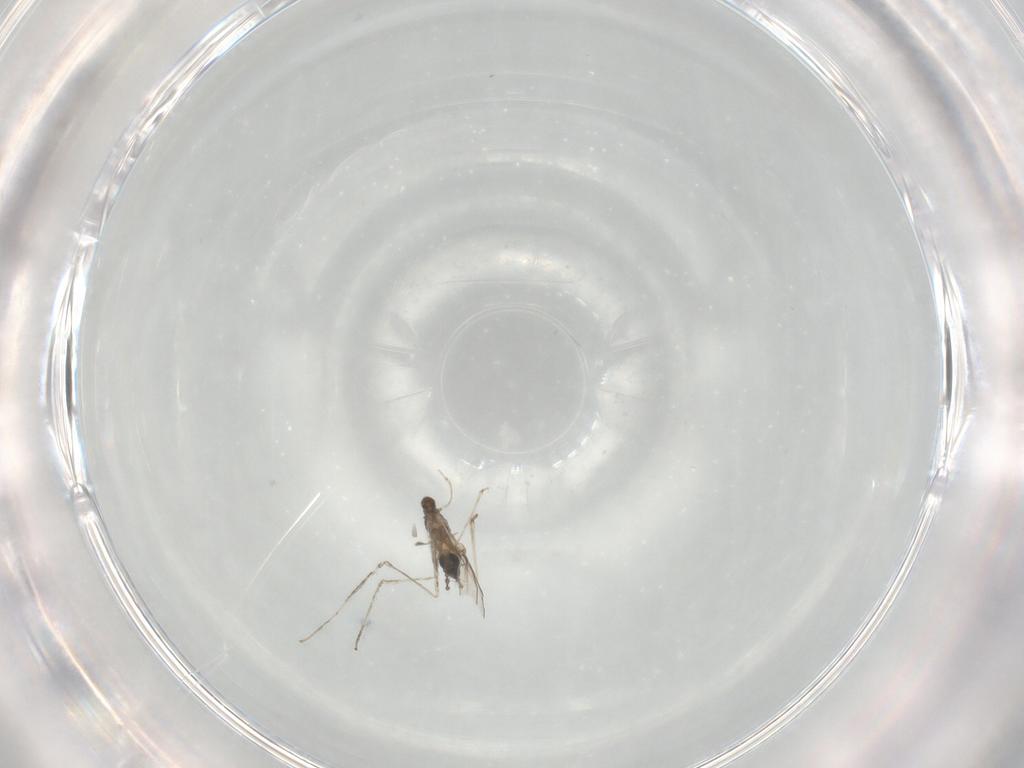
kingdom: Animalia
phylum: Arthropoda
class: Insecta
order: Diptera
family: Cecidomyiidae
